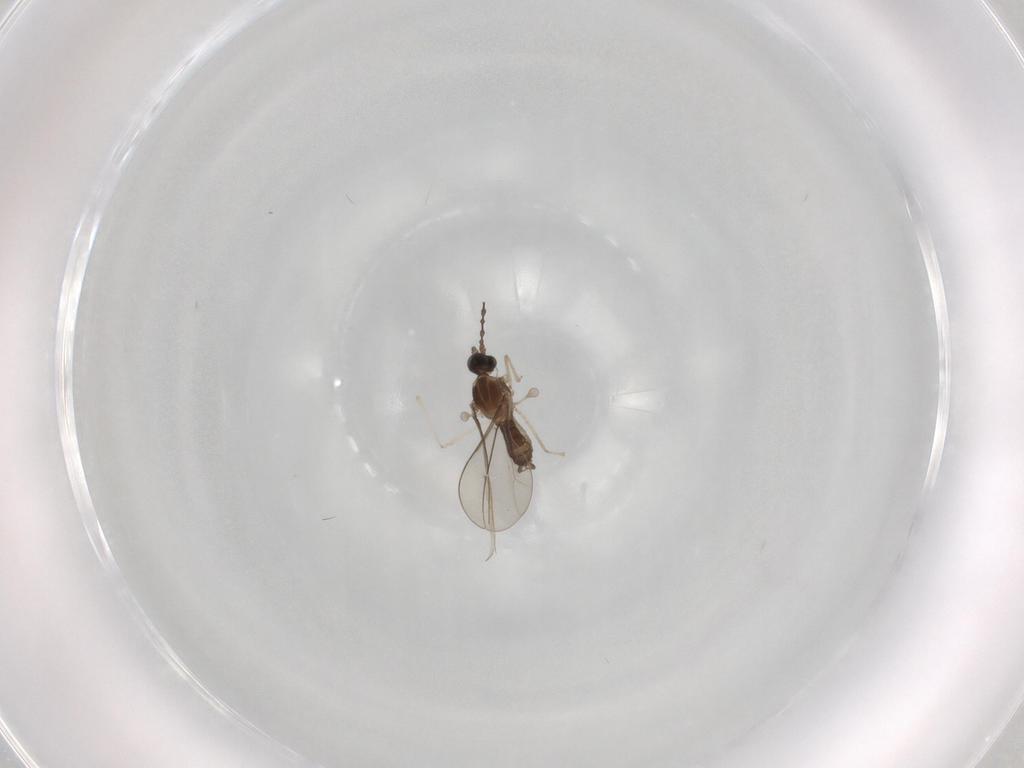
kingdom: Animalia
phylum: Arthropoda
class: Insecta
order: Diptera
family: Cecidomyiidae
